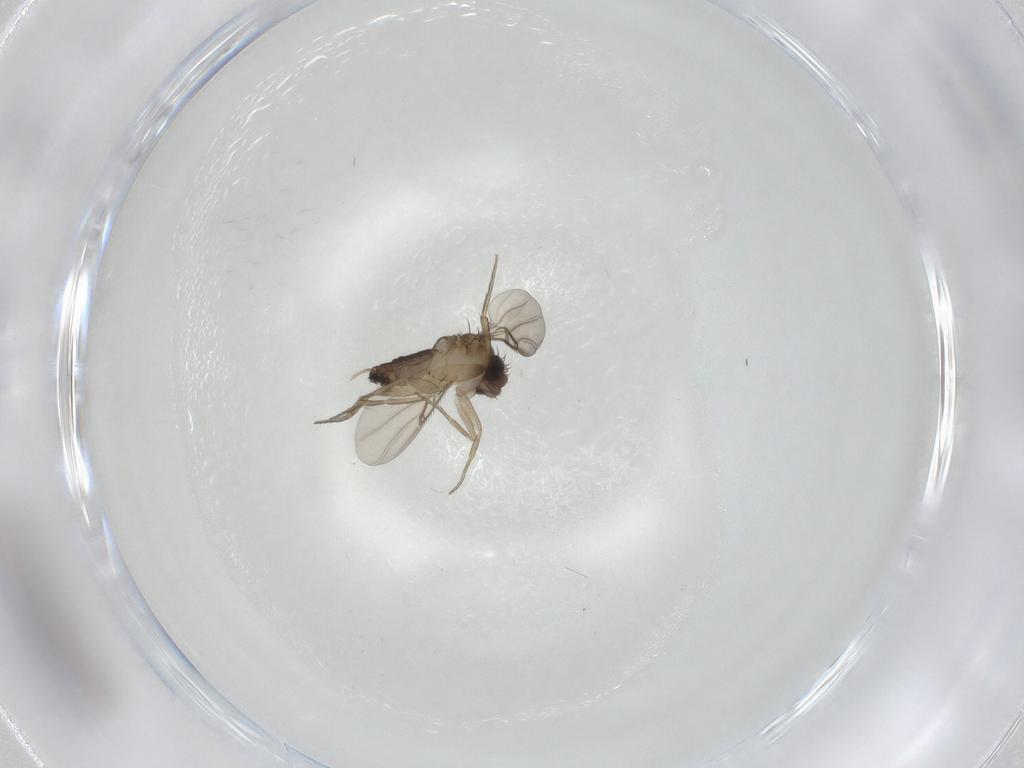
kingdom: Animalia
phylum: Arthropoda
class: Insecta
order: Diptera
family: Phoridae
